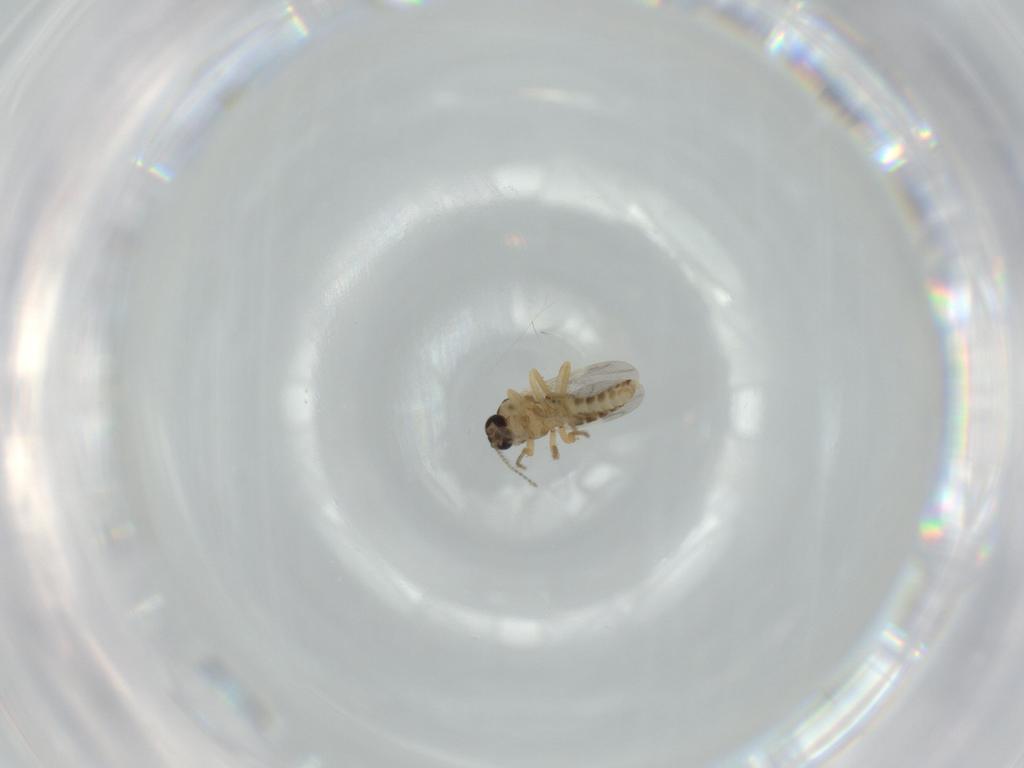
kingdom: Animalia
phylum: Arthropoda
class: Insecta
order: Diptera
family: Ceratopogonidae
